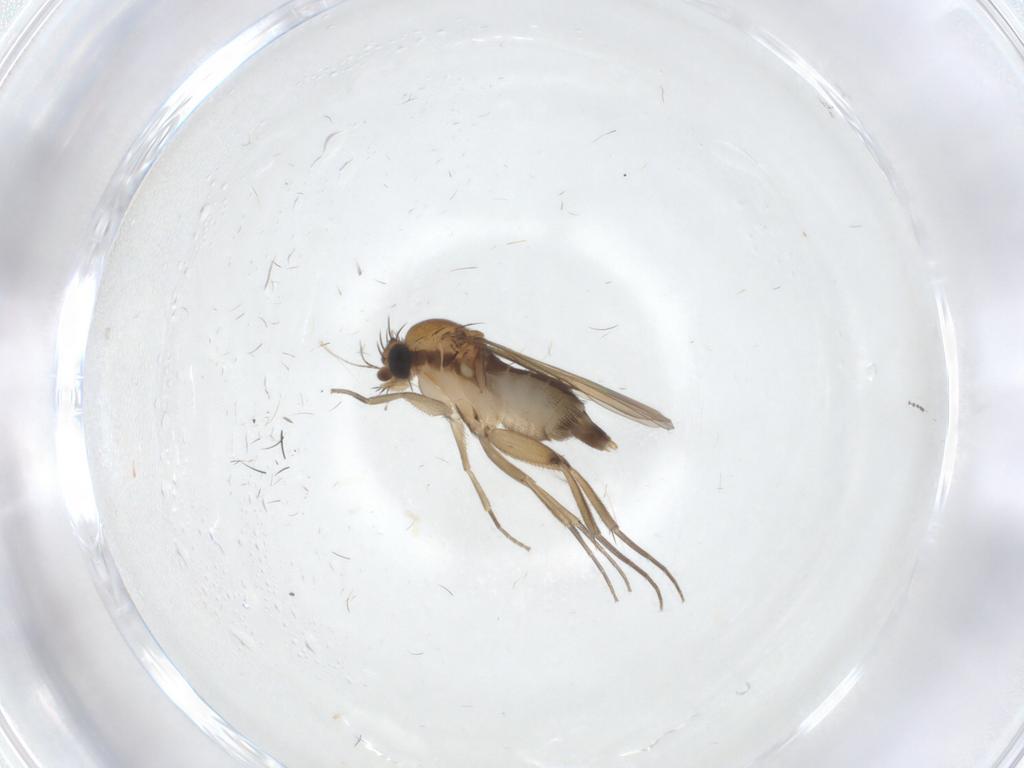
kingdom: Animalia
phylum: Arthropoda
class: Insecta
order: Diptera
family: Phoridae
